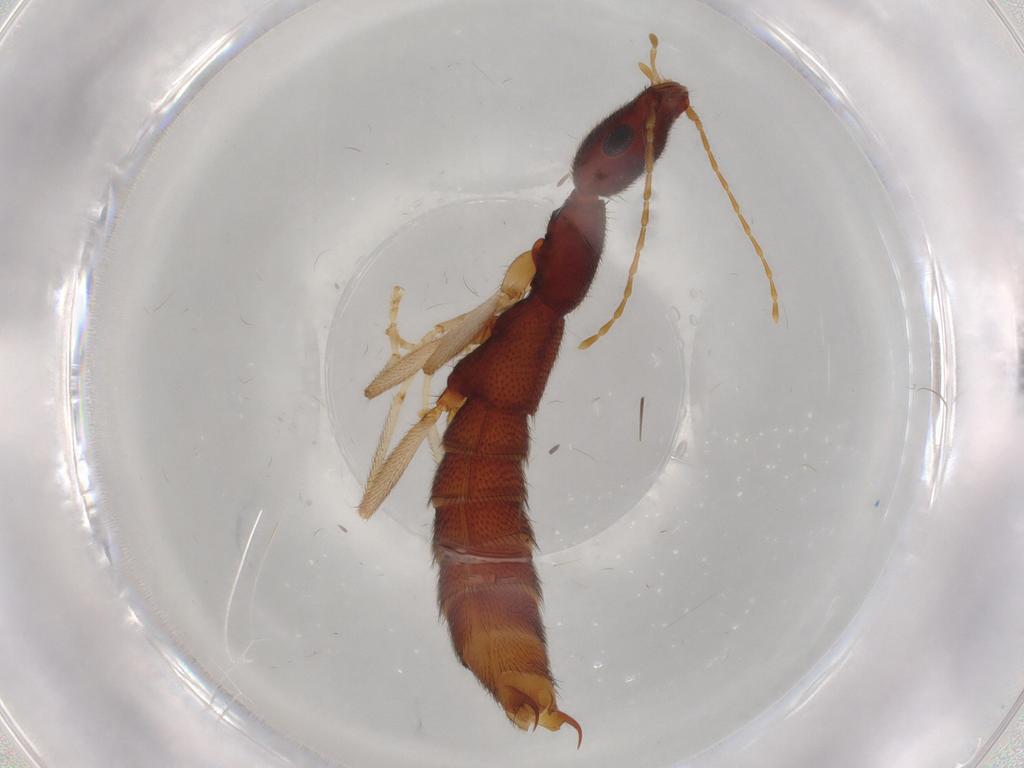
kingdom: Animalia
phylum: Arthropoda
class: Insecta
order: Coleoptera
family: Staphylinidae
